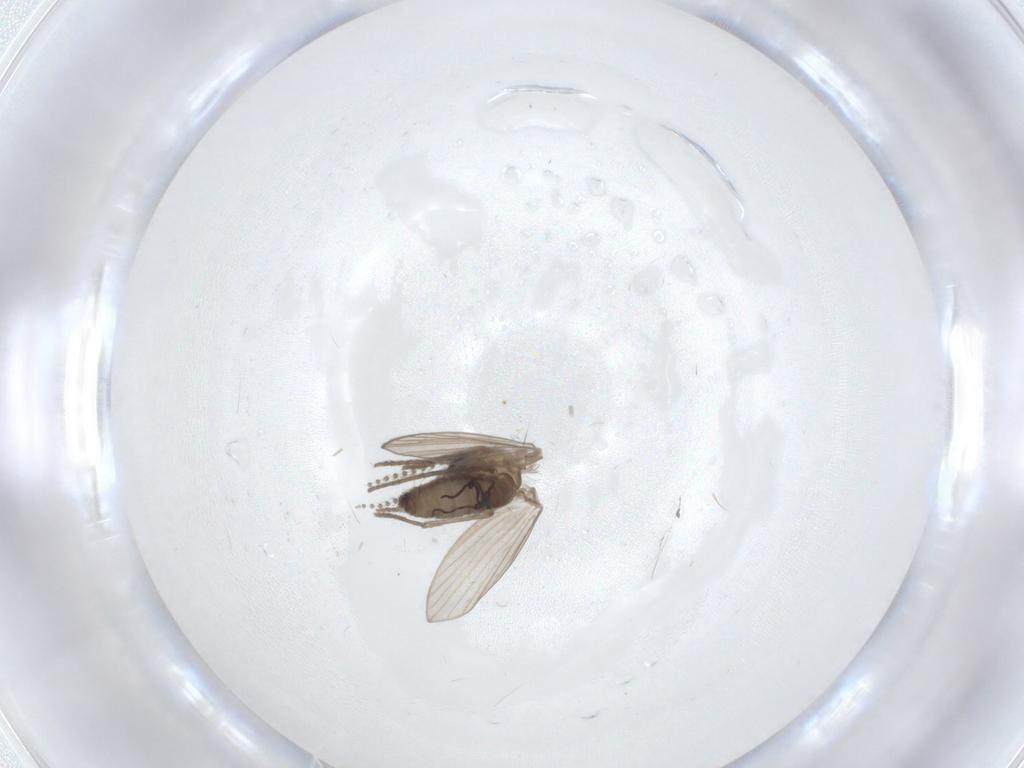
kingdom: Animalia
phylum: Arthropoda
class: Insecta
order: Diptera
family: Psychodidae
